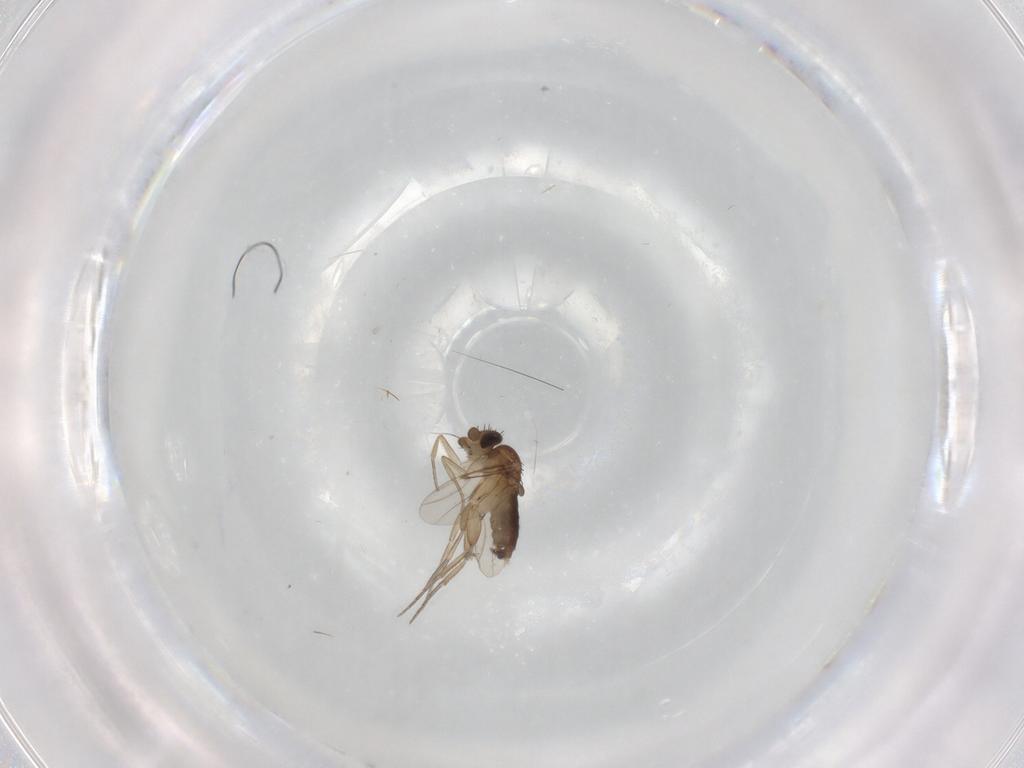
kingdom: Animalia
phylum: Arthropoda
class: Insecta
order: Diptera
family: Phoridae
